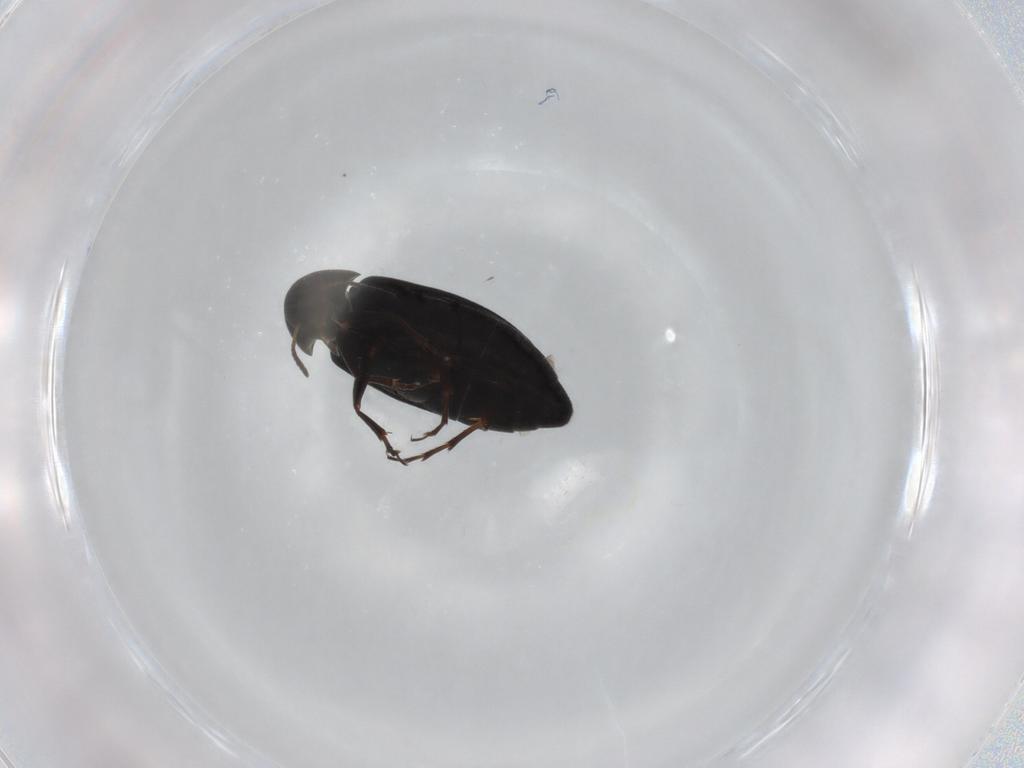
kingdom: Animalia
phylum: Arthropoda
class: Insecta
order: Coleoptera
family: Scraptiidae
